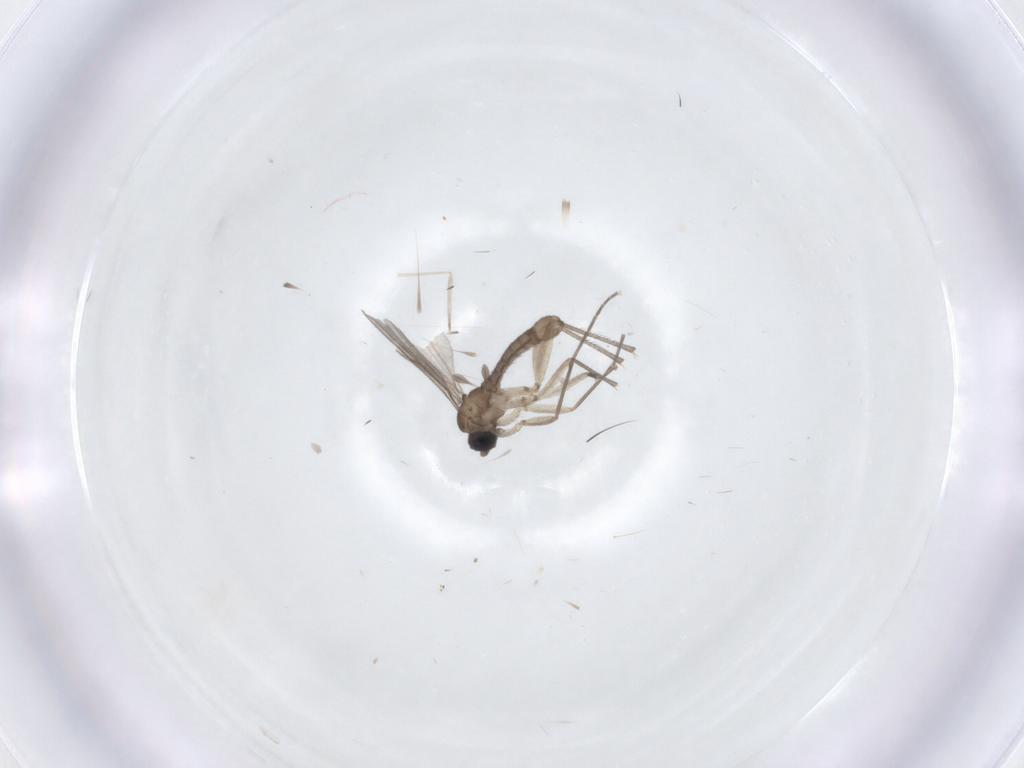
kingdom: Animalia
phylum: Arthropoda
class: Insecta
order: Diptera
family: Sciaridae
